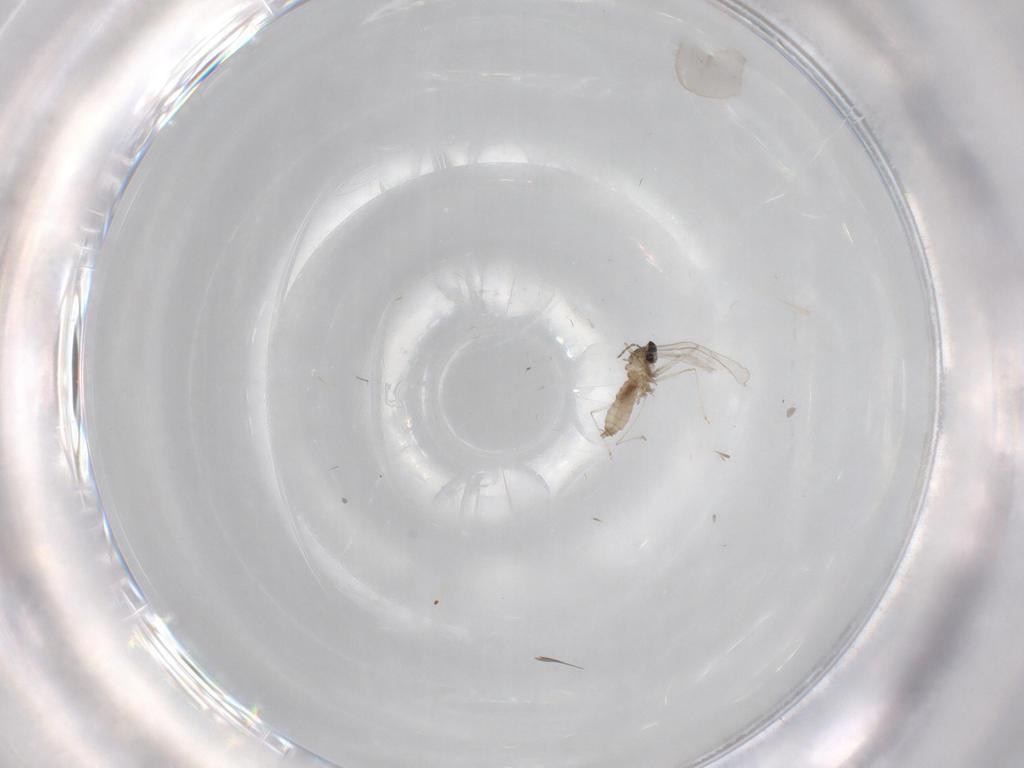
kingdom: Animalia
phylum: Arthropoda
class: Insecta
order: Diptera
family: Cecidomyiidae
